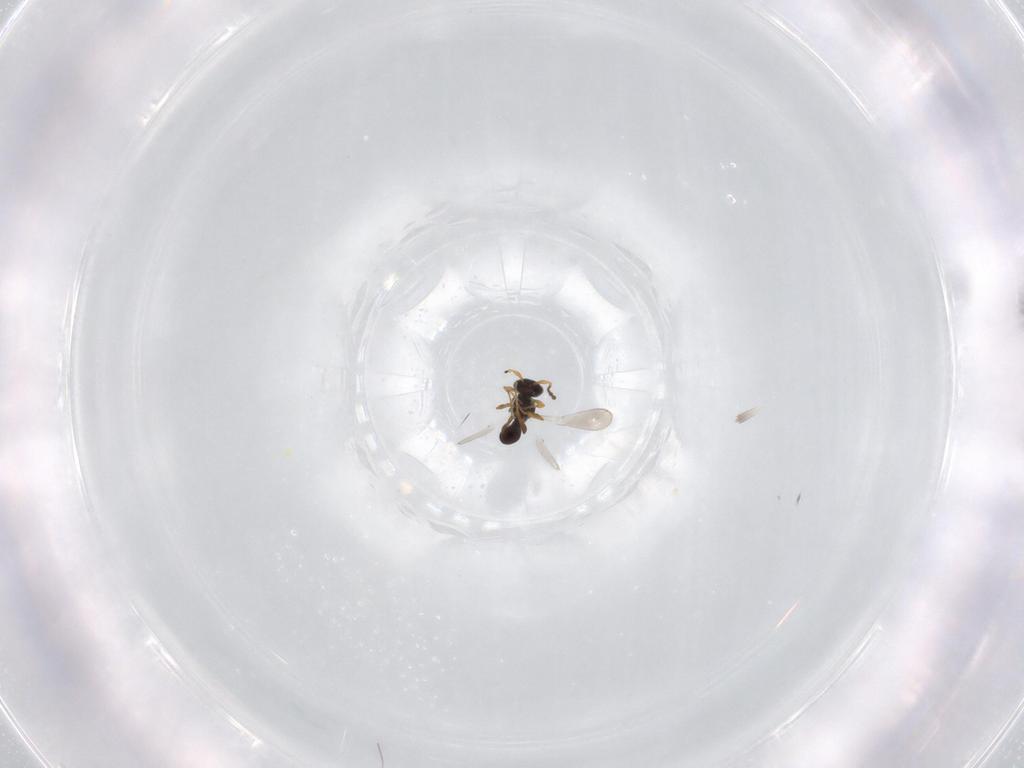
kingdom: Animalia
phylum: Arthropoda
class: Insecta
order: Hymenoptera
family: Platygastridae
